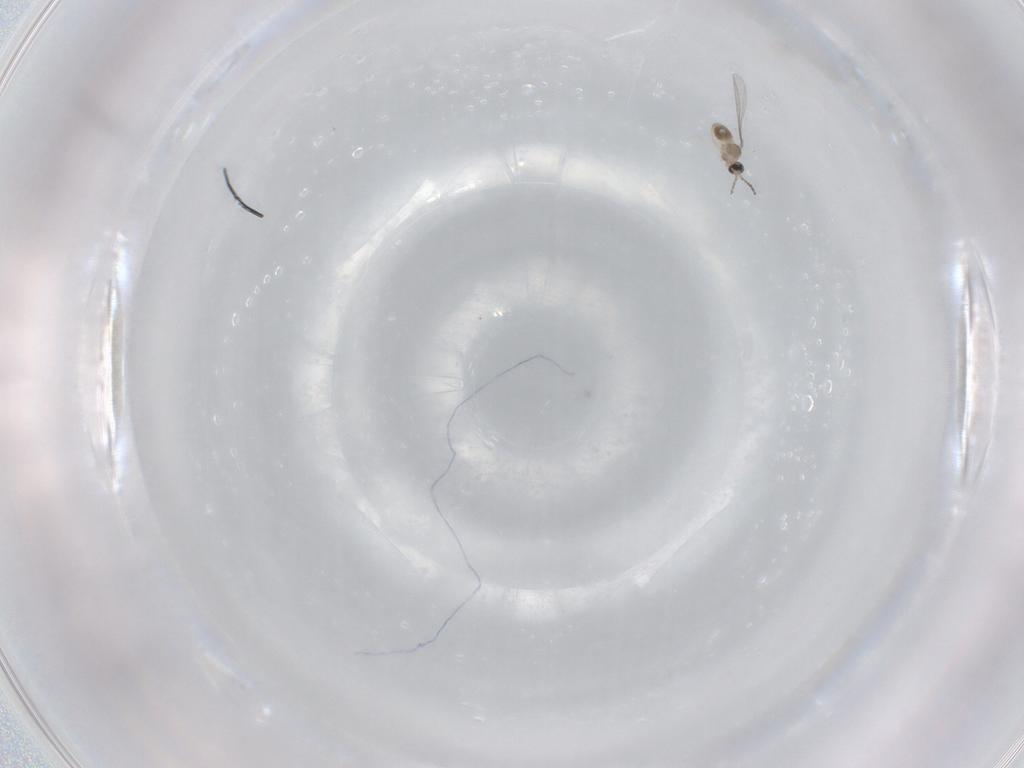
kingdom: Animalia
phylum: Arthropoda
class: Insecta
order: Diptera
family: Cecidomyiidae
